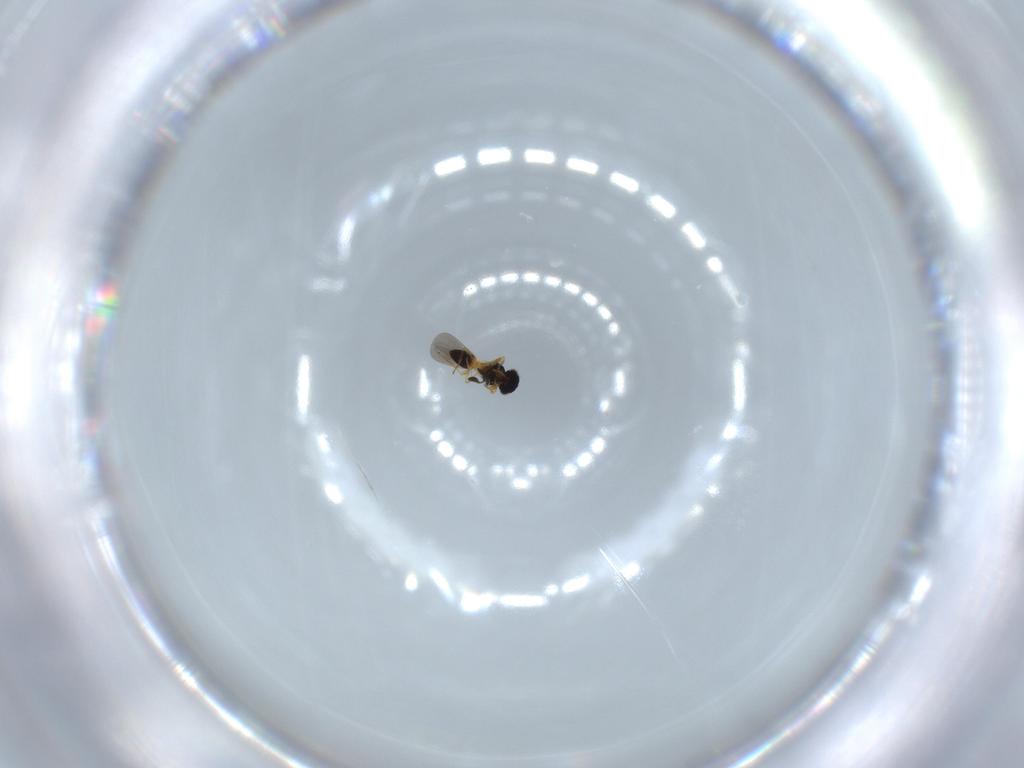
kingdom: Animalia
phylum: Arthropoda
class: Insecta
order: Hymenoptera
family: Platygastridae
